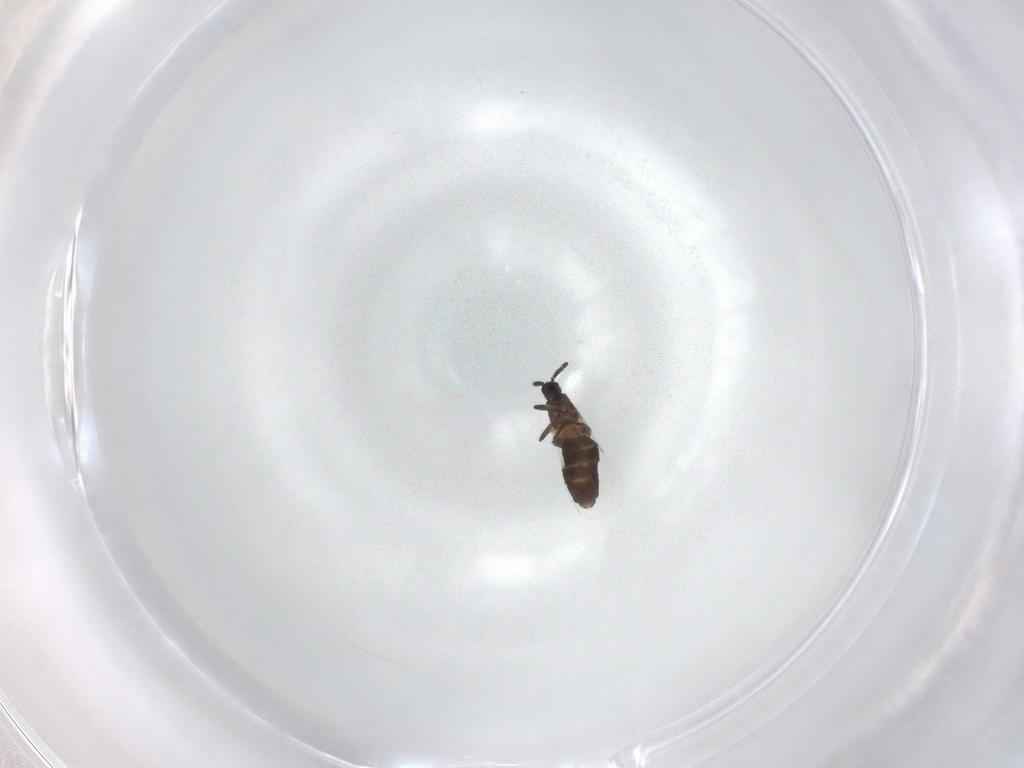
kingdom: Animalia
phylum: Arthropoda
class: Insecta
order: Diptera
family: Scatopsidae
